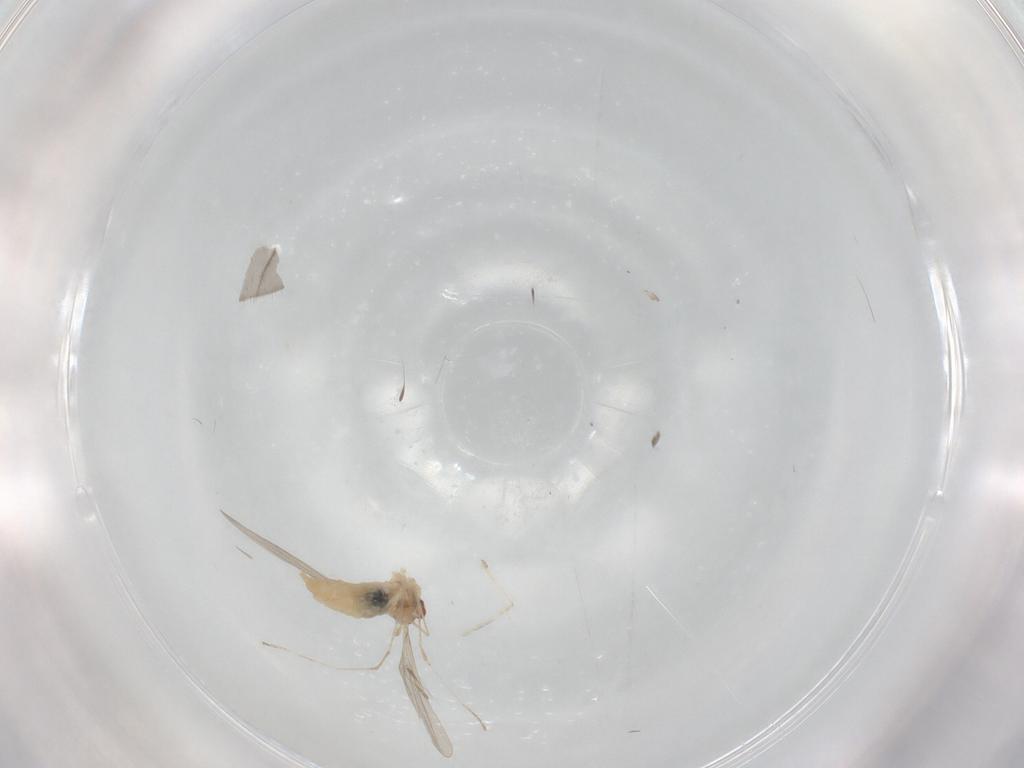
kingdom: Animalia
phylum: Arthropoda
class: Insecta
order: Diptera
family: Cecidomyiidae
